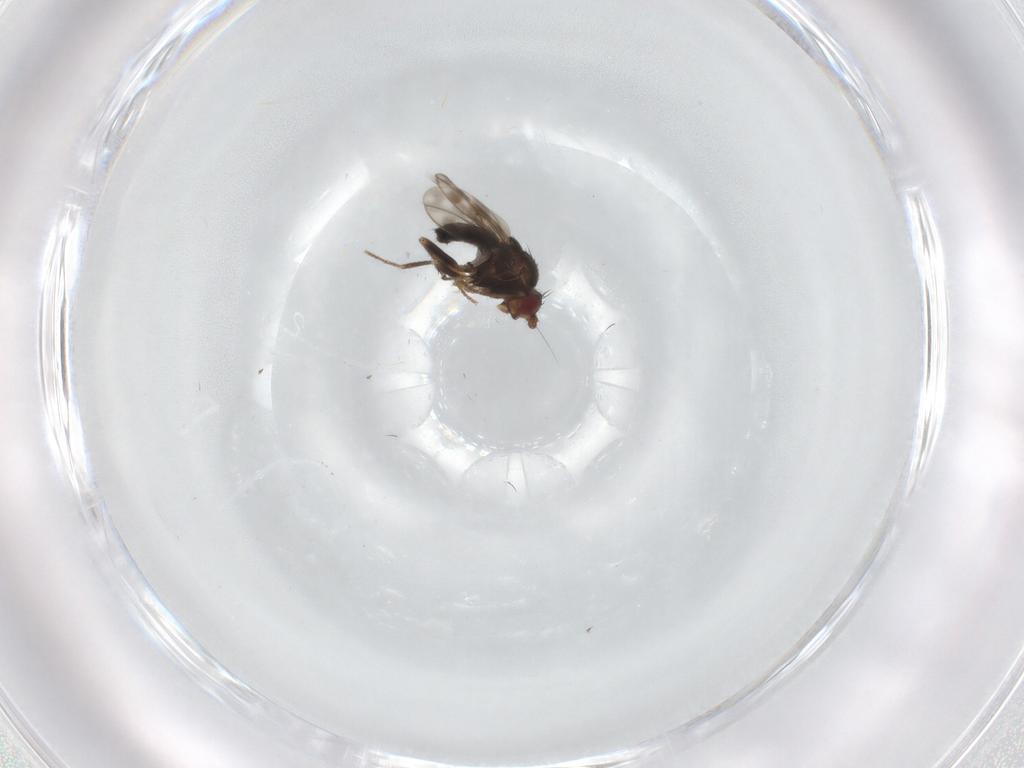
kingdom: Animalia
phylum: Arthropoda
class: Insecta
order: Diptera
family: Sphaeroceridae
